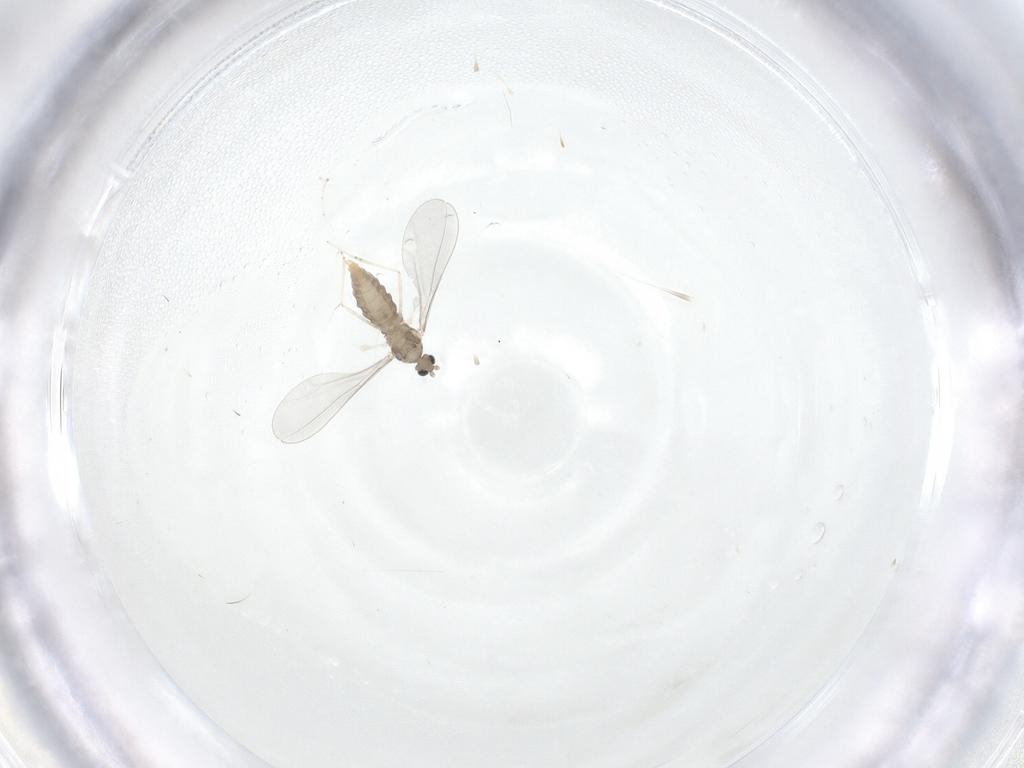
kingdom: Animalia
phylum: Arthropoda
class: Insecta
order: Diptera
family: Cecidomyiidae
